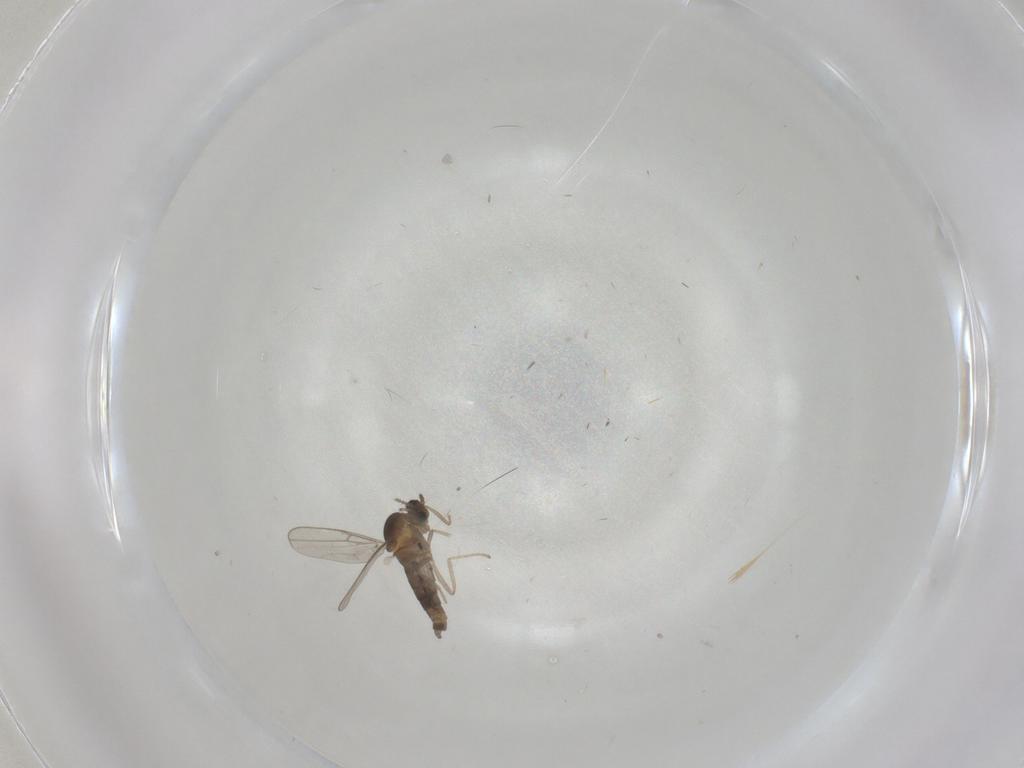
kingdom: Animalia
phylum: Arthropoda
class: Insecta
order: Diptera
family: Cecidomyiidae
